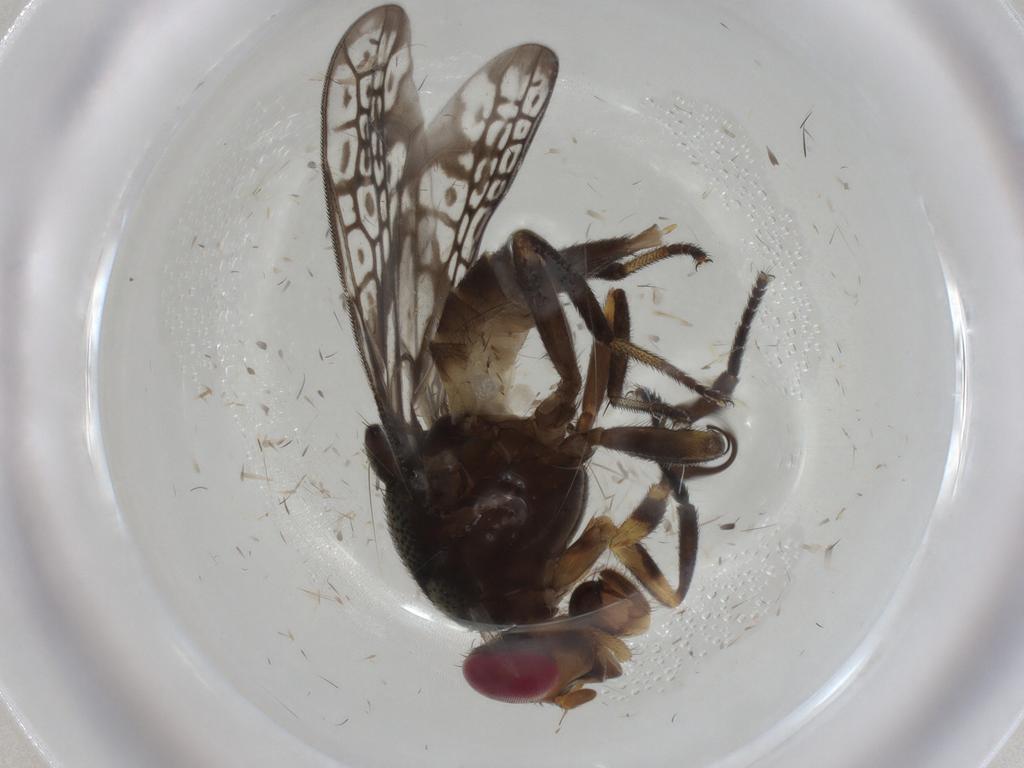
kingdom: Animalia
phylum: Arthropoda
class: Insecta
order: Diptera
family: Ulidiidae
